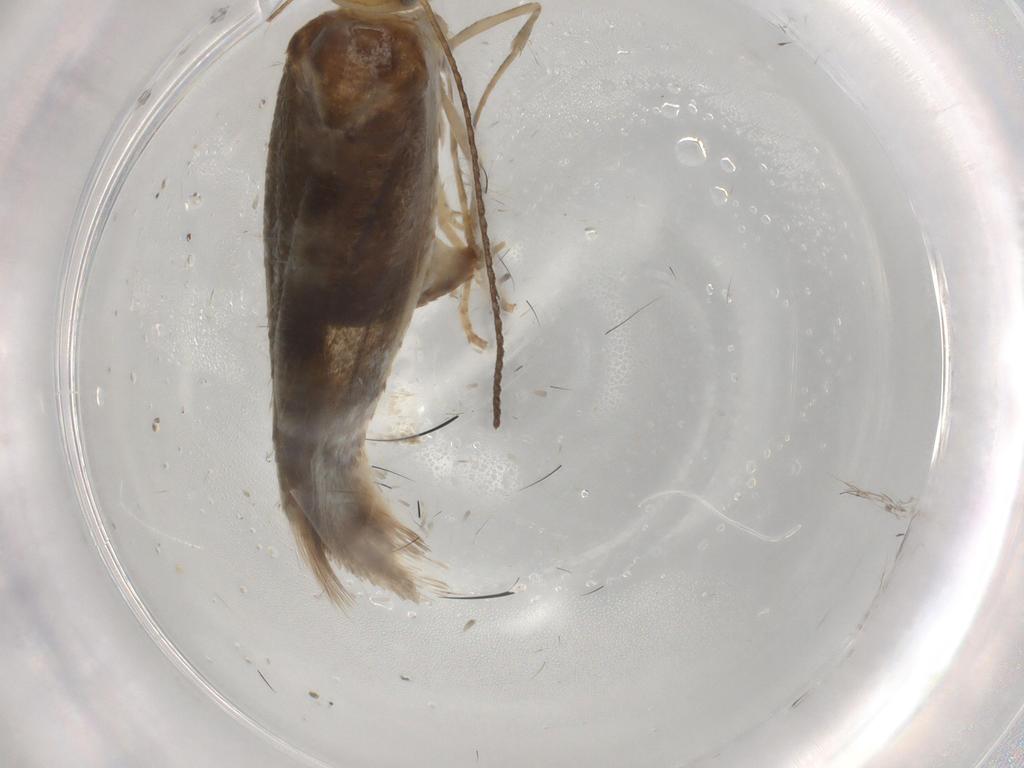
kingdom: Animalia
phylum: Arthropoda
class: Insecta
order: Lepidoptera
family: Argyresthiidae
